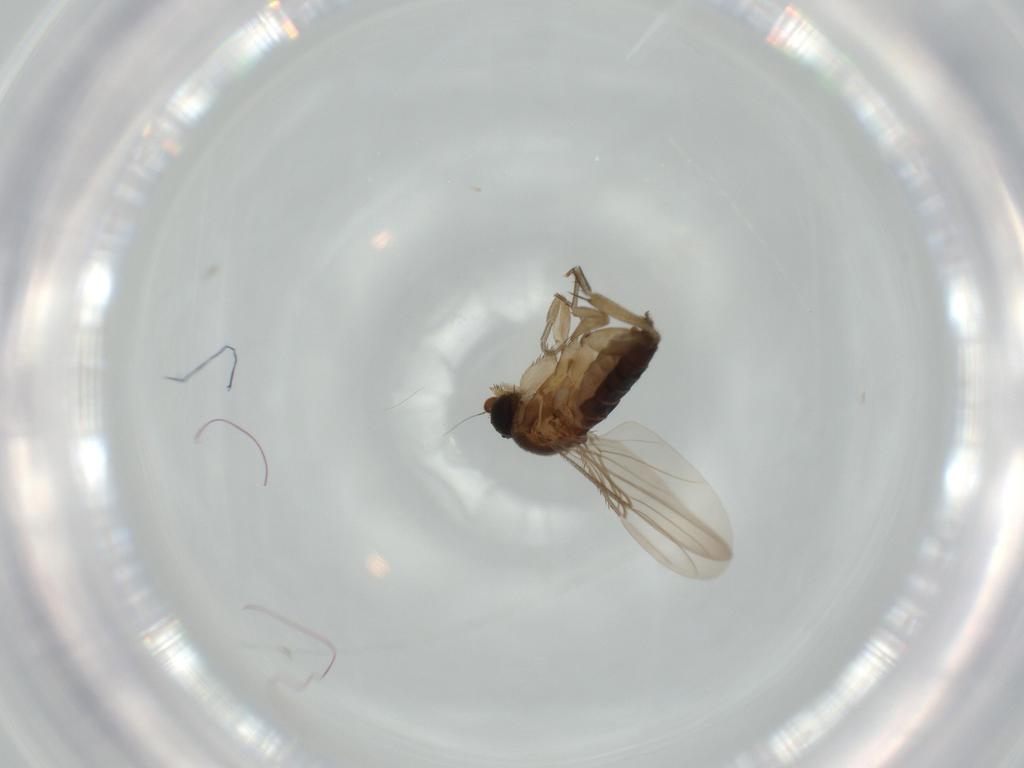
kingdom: Animalia
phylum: Arthropoda
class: Insecta
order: Diptera
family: Phoridae
